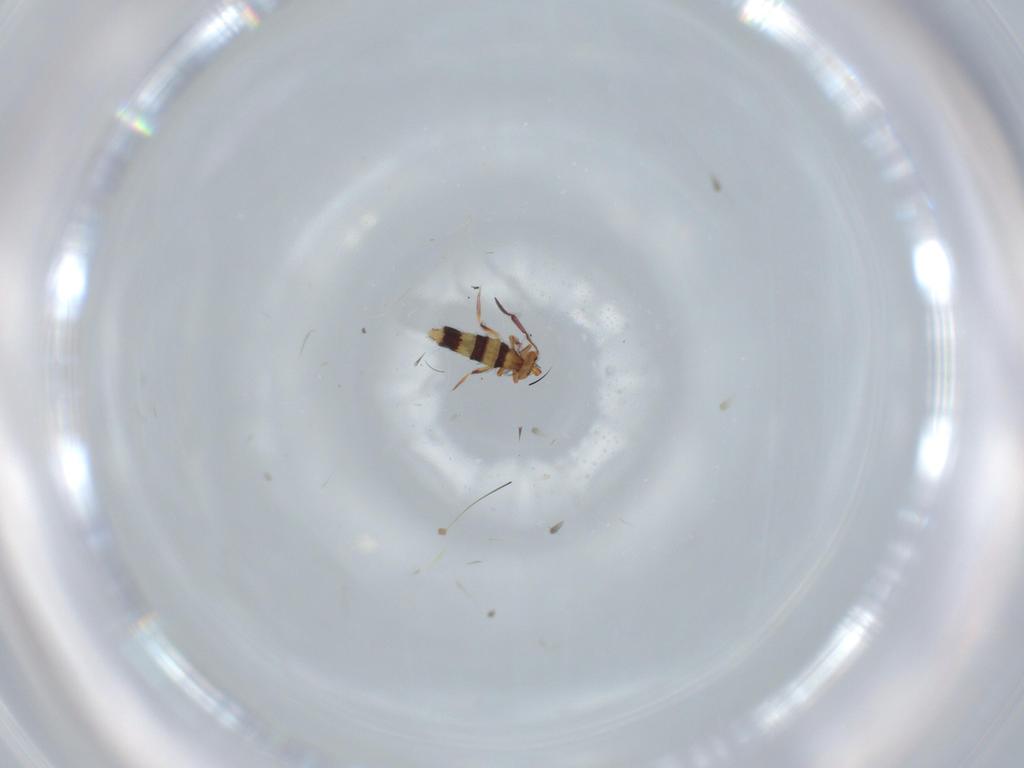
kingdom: Animalia
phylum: Arthropoda
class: Collembola
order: Entomobryomorpha
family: Entomobryidae
